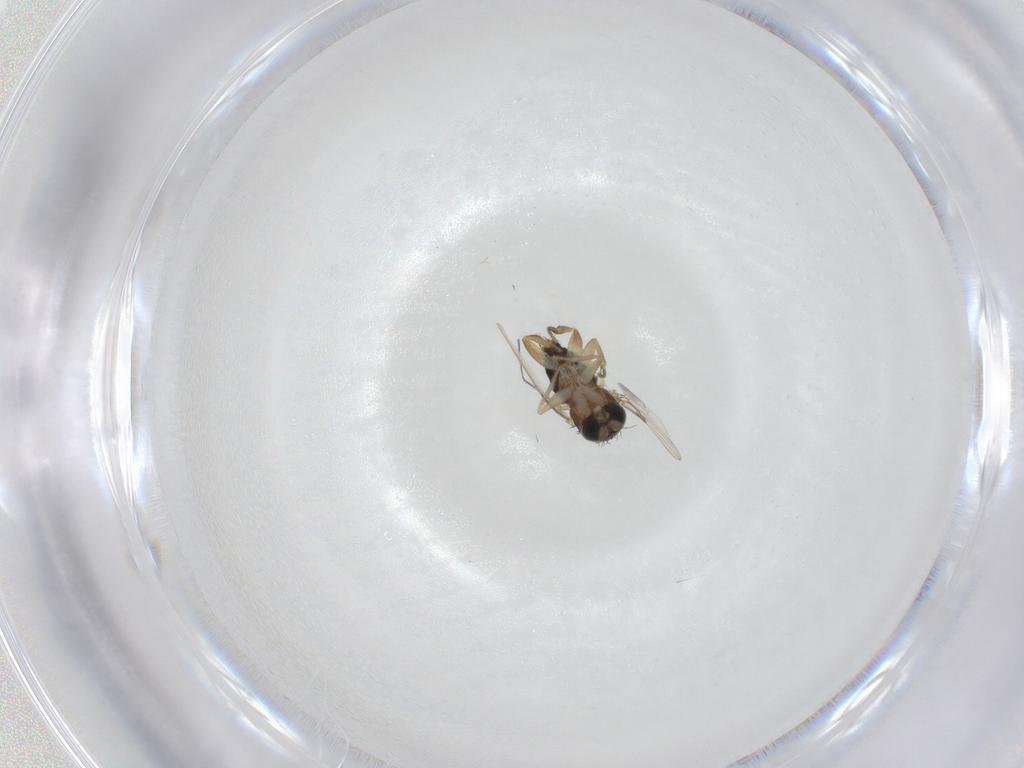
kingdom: Animalia
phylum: Arthropoda
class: Insecta
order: Diptera
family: Phoridae
